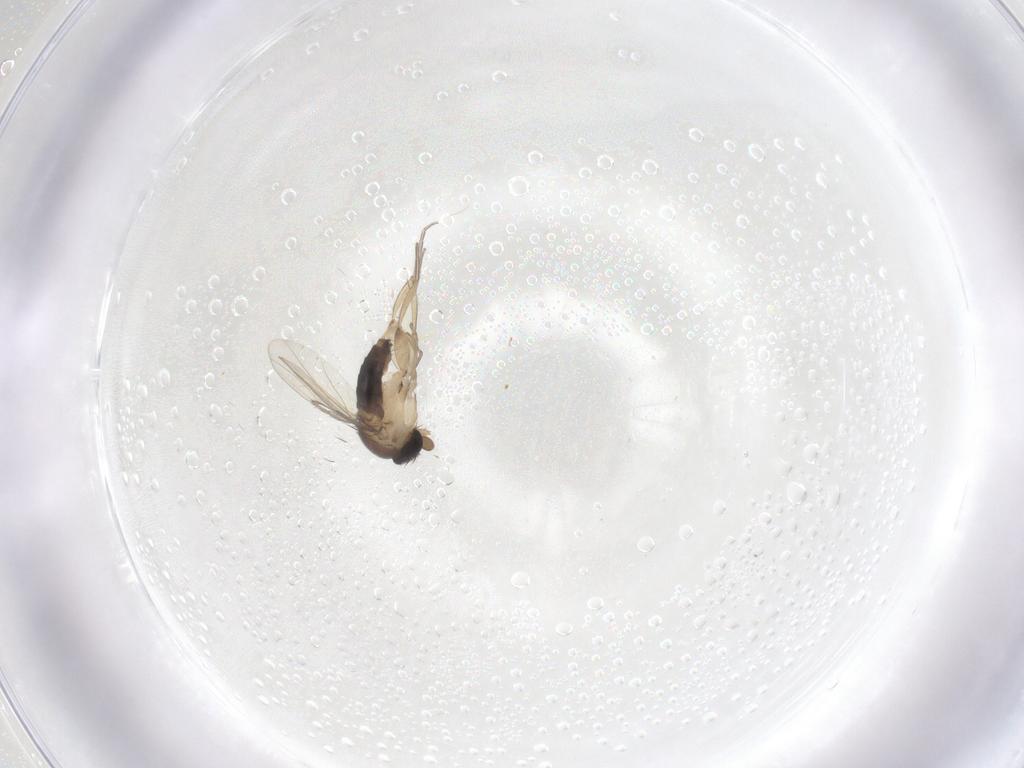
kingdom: Animalia
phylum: Arthropoda
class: Insecta
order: Diptera
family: Phoridae
